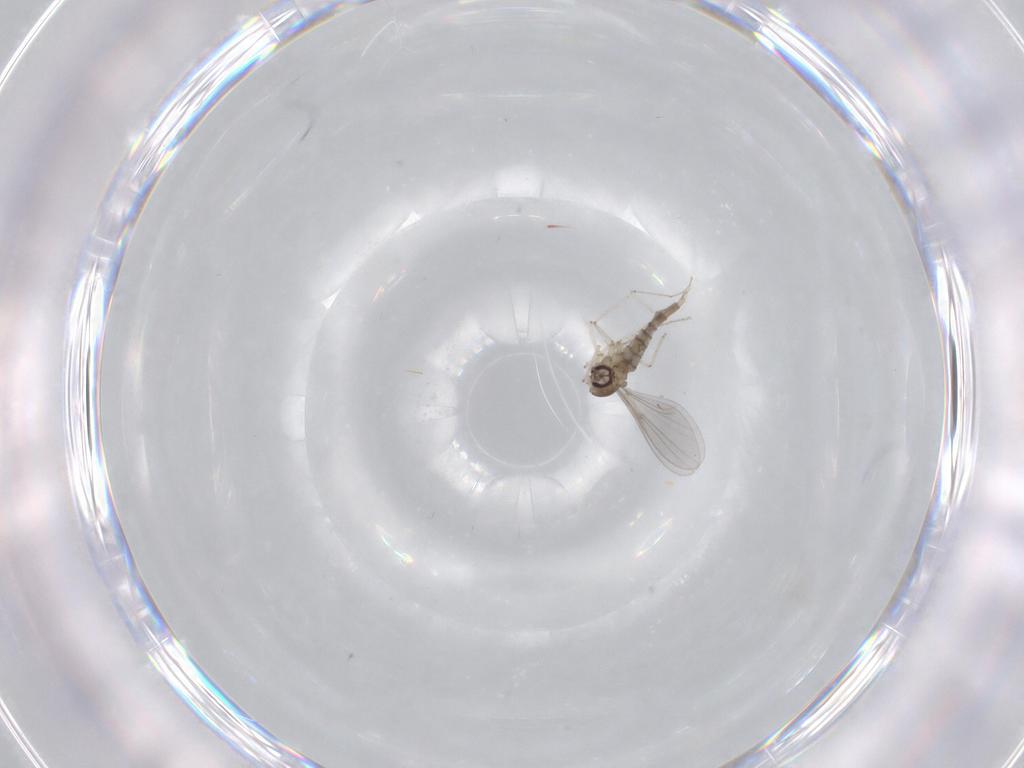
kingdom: Animalia
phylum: Arthropoda
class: Insecta
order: Diptera
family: Cecidomyiidae
